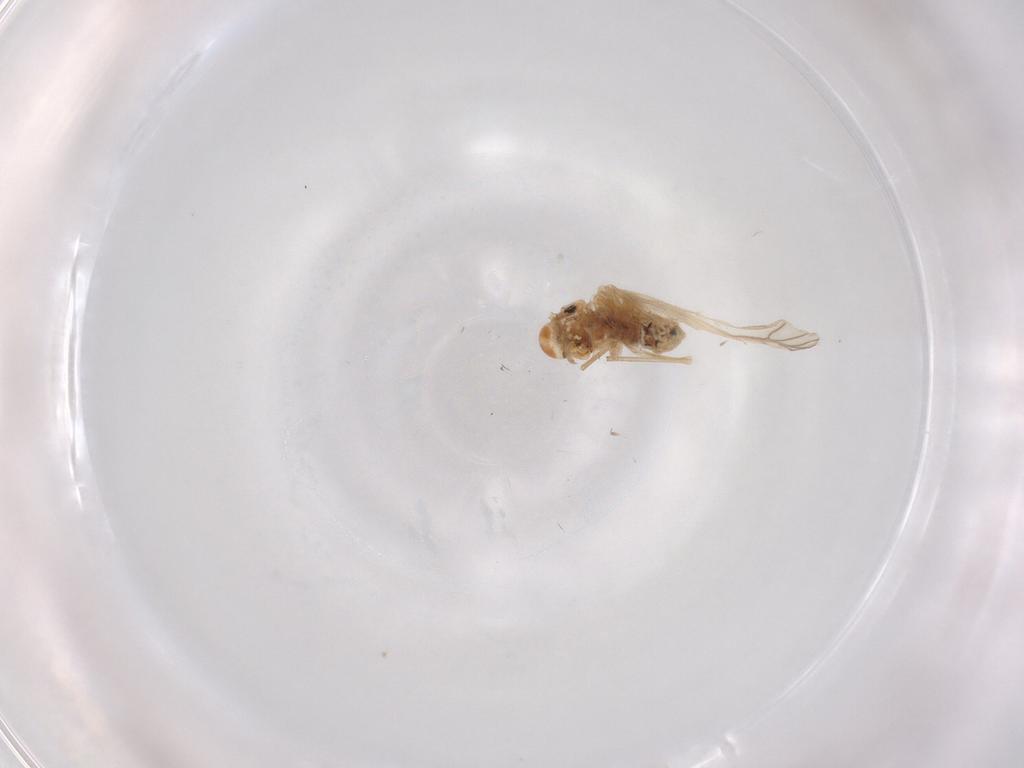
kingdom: Animalia
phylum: Arthropoda
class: Insecta
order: Psocodea
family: Caeciliusidae
